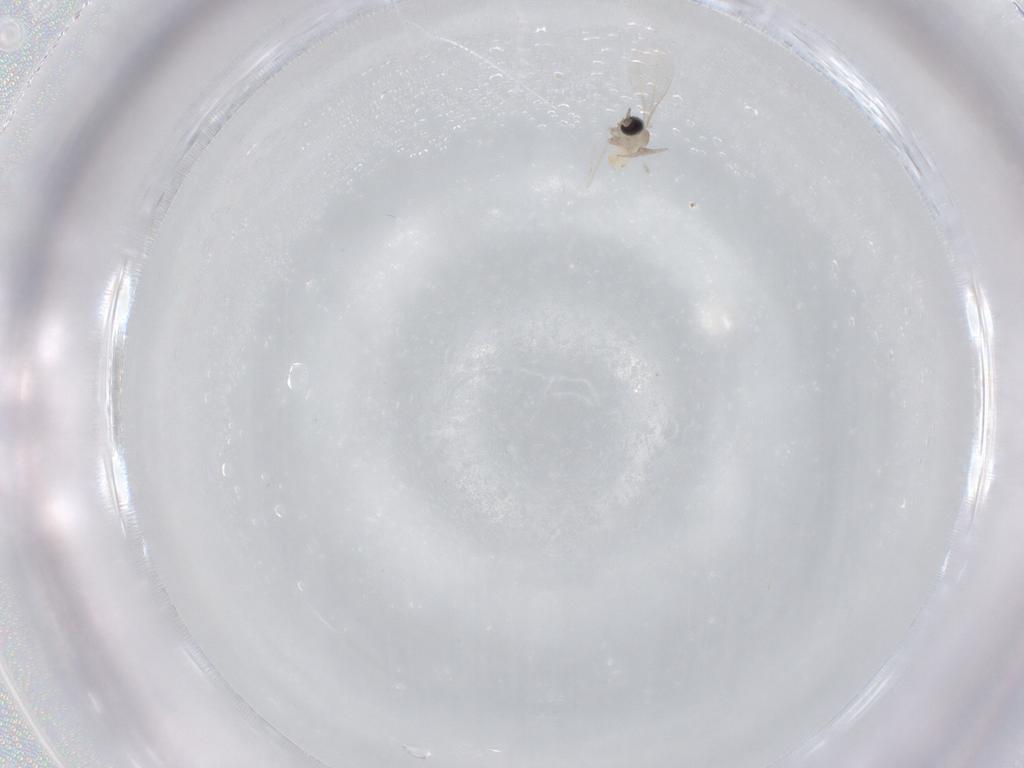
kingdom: Animalia
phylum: Arthropoda
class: Insecta
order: Diptera
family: Cecidomyiidae
